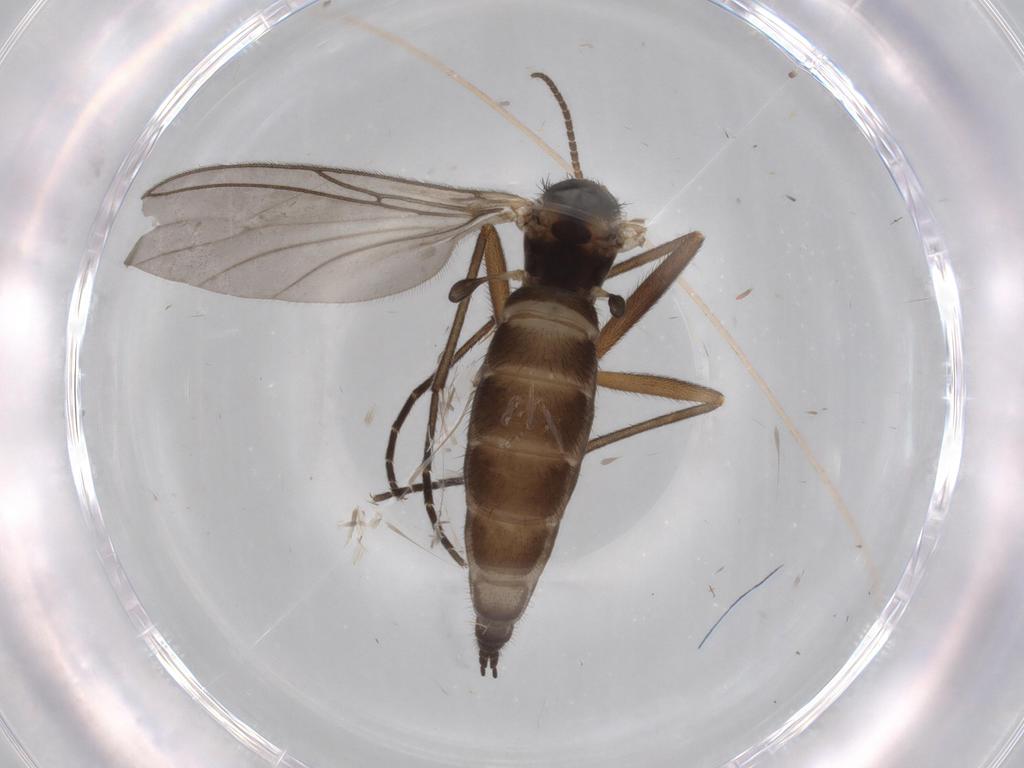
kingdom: Animalia
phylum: Arthropoda
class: Insecta
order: Diptera
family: Sciaridae
